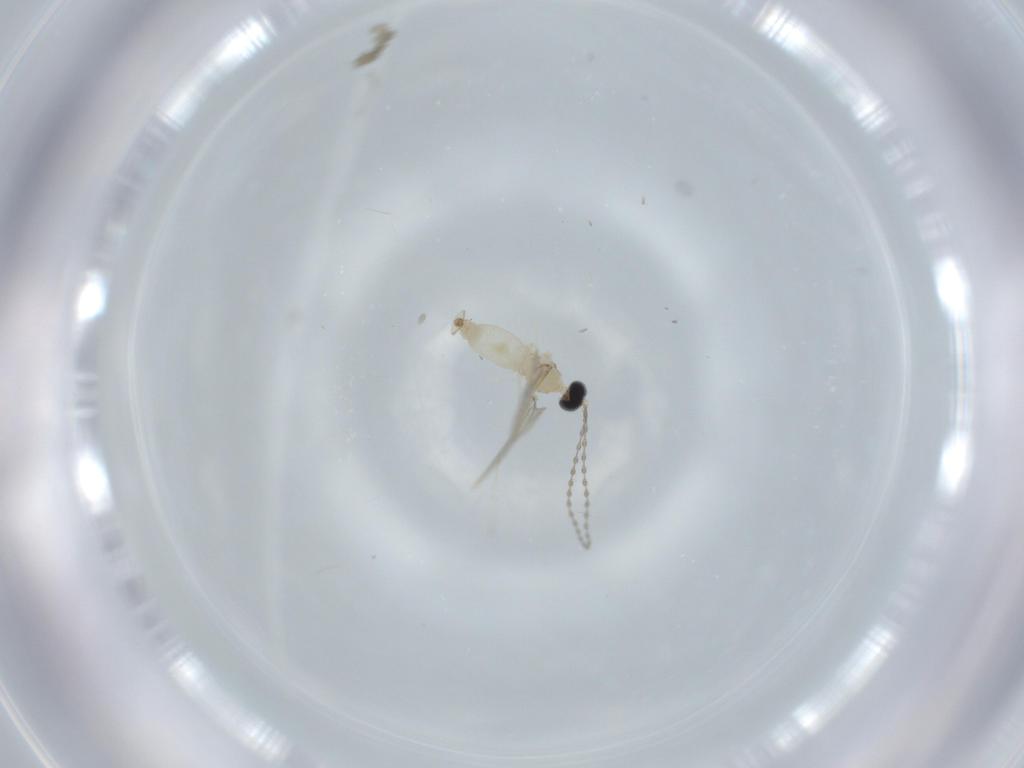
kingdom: Animalia
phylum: Arthropoda
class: Insecta
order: Diptera
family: Cecidomyiidae
